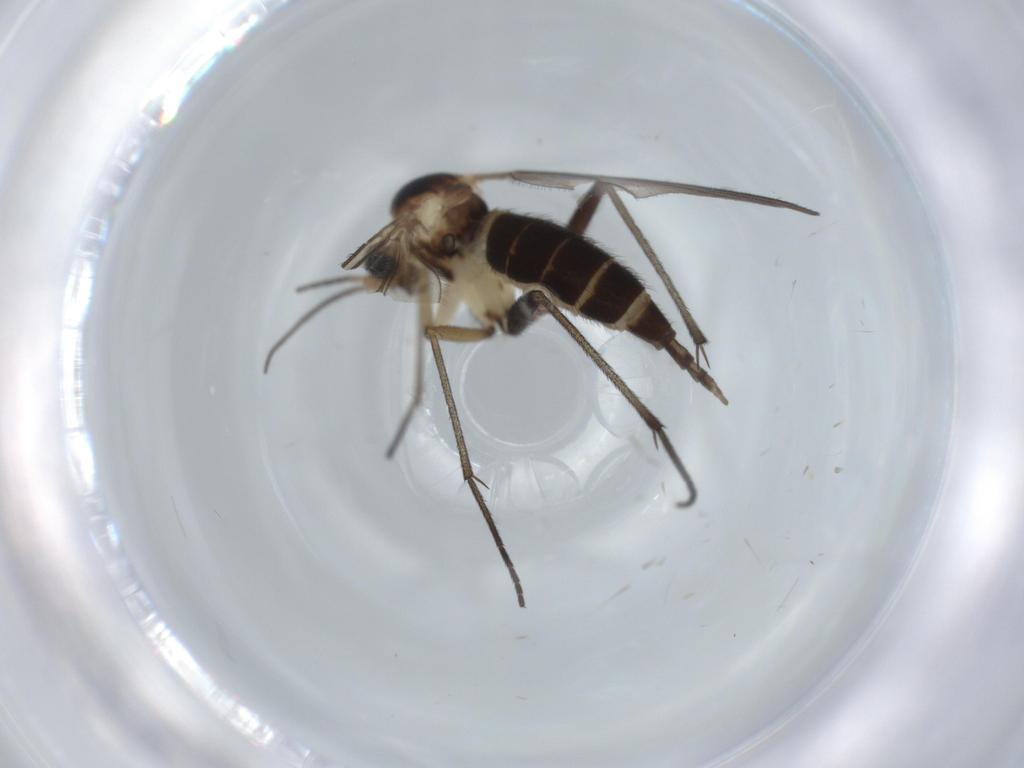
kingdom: Animalia
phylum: Arthropoda
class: Insecta
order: Diptera
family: Sciaridae
